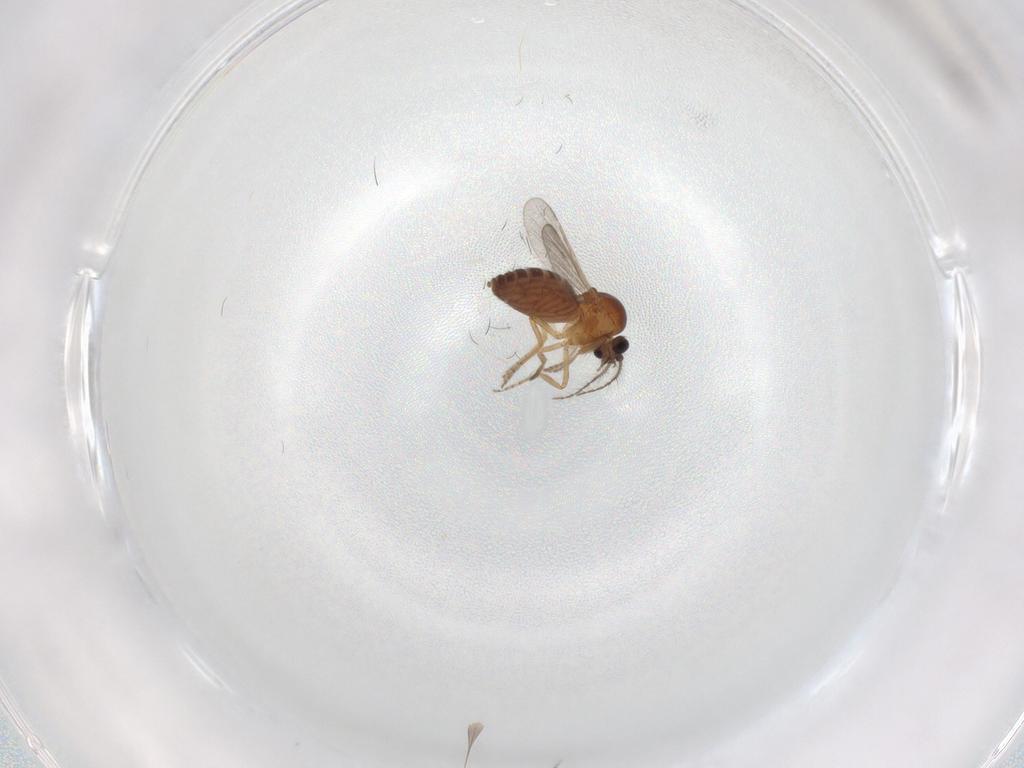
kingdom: Animalia
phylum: Arthropoda
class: Insecta
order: Diptera
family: Ceratopogonidae
